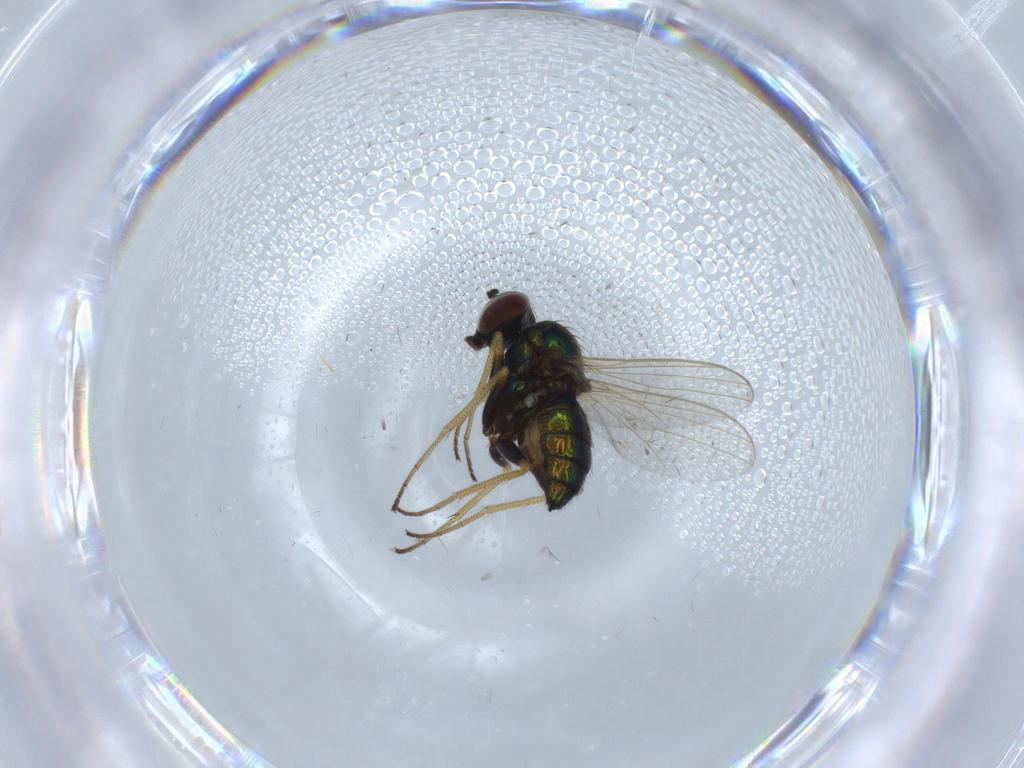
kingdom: Animalia
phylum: Arthropoda
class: Insecta
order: Diptera
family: Dolichopodidae
